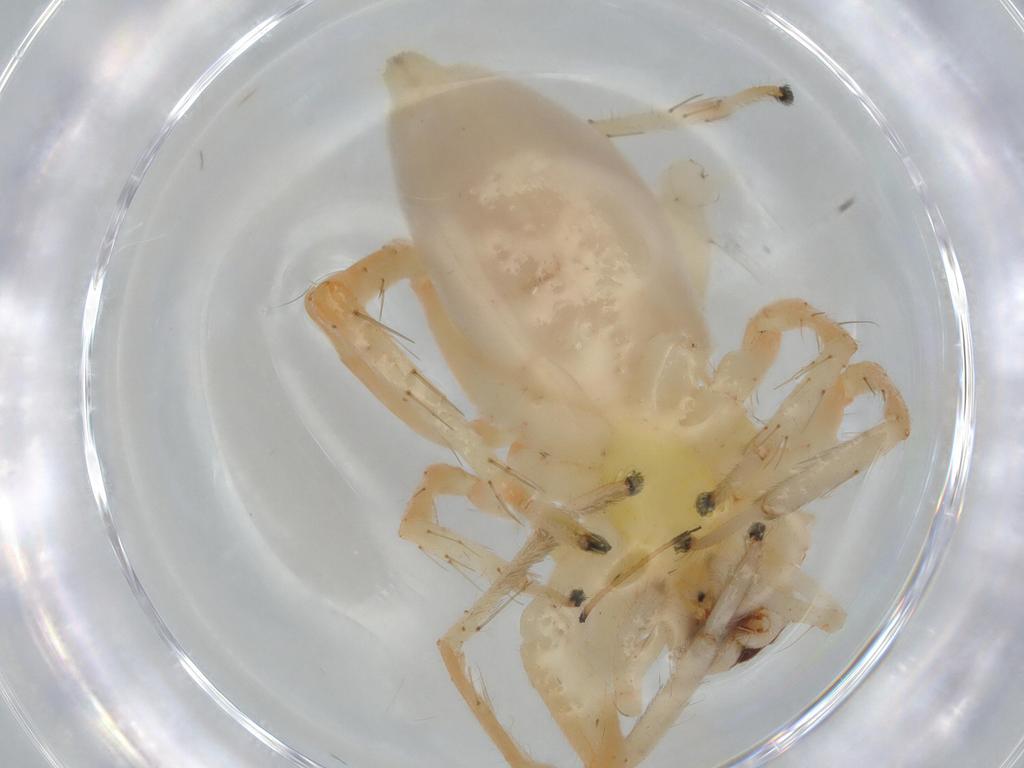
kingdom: Animalia
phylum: Arthropoda
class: Arachnida
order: Araneae
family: Anyphaenidae
